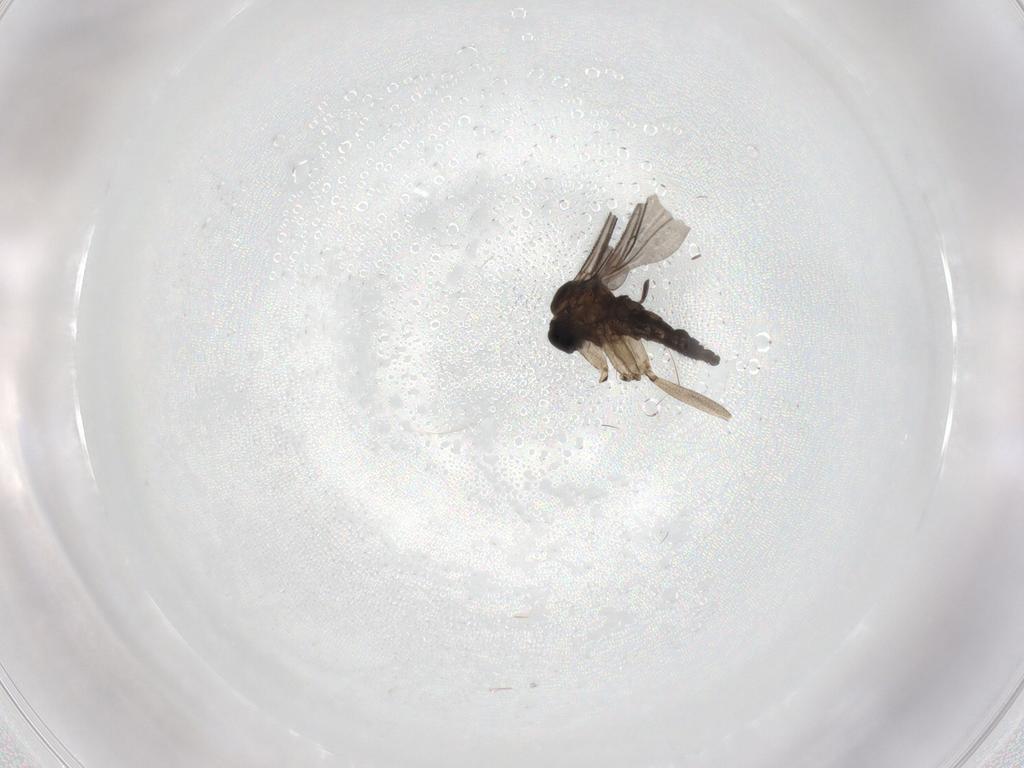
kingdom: Animalia
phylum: Arthropoda
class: Insecta
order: Diptera
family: Sciaridae
